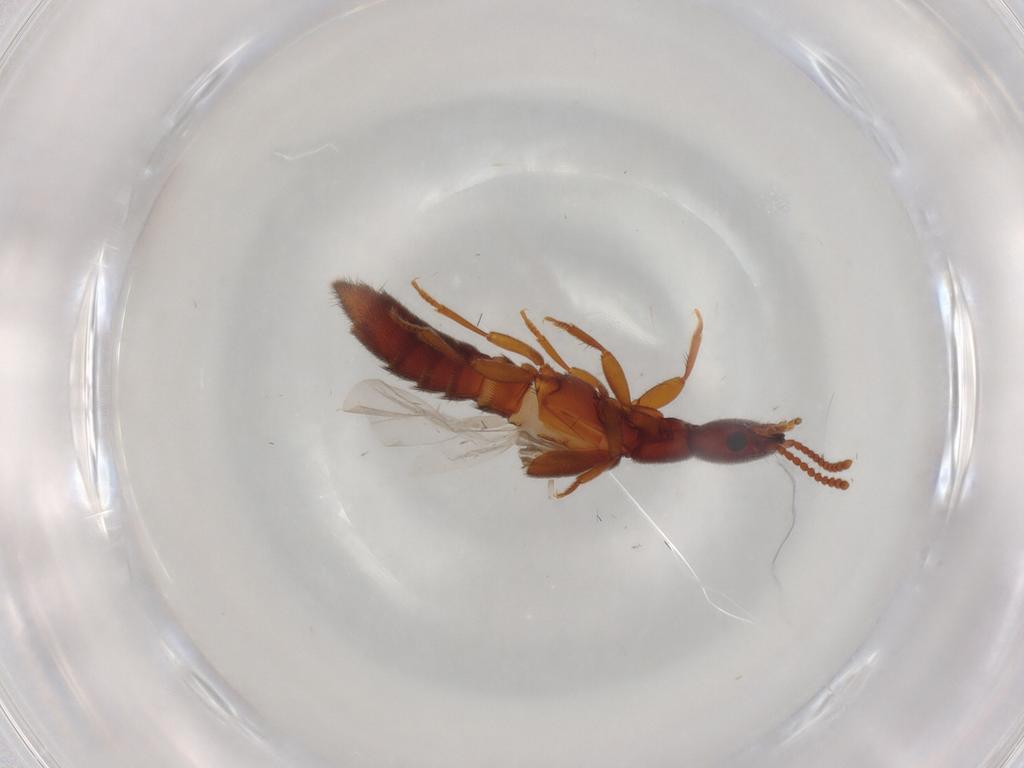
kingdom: Animalia
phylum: Arthropoda
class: Insecta
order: Coleoptera
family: Staphylinidae
